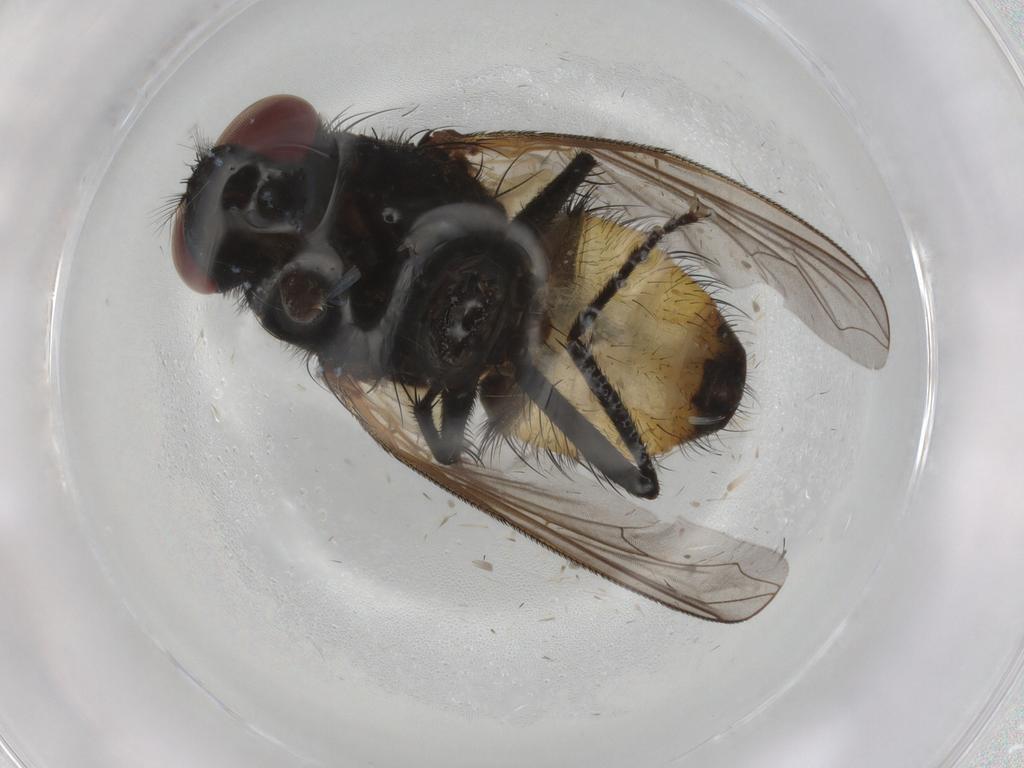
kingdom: Animalia
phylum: Arthropoda
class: Insecta
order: Diptera
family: Muscidae
